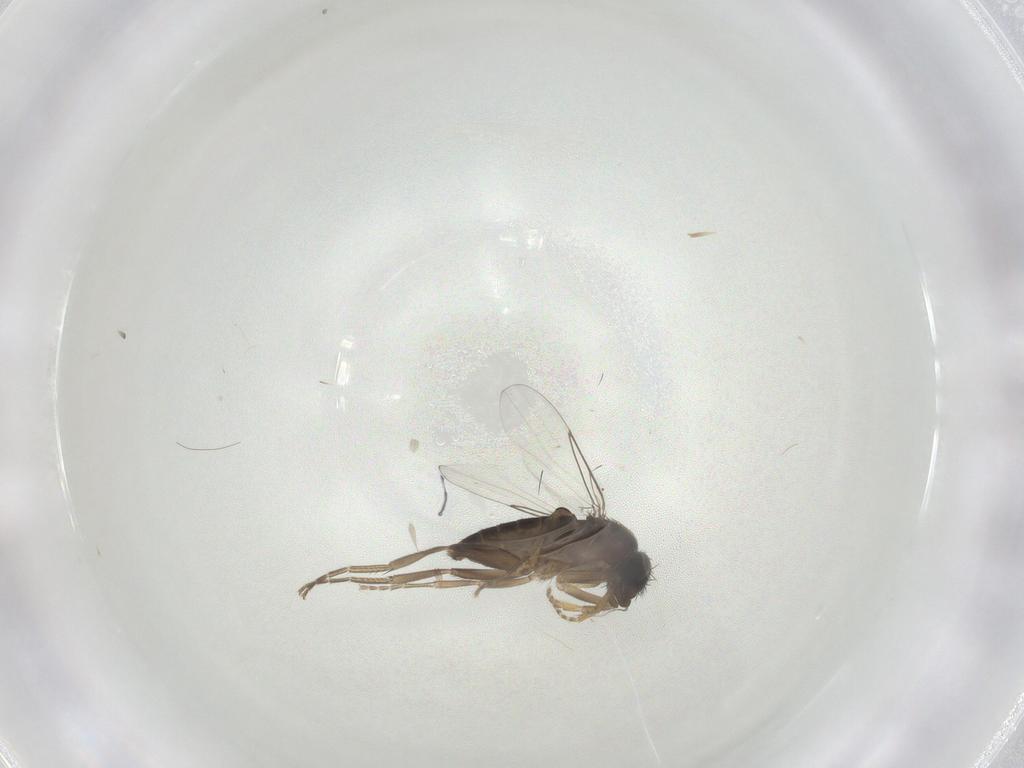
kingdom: Animalia
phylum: Arthropoda
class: Insecta
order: Diptera
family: Phoridae
